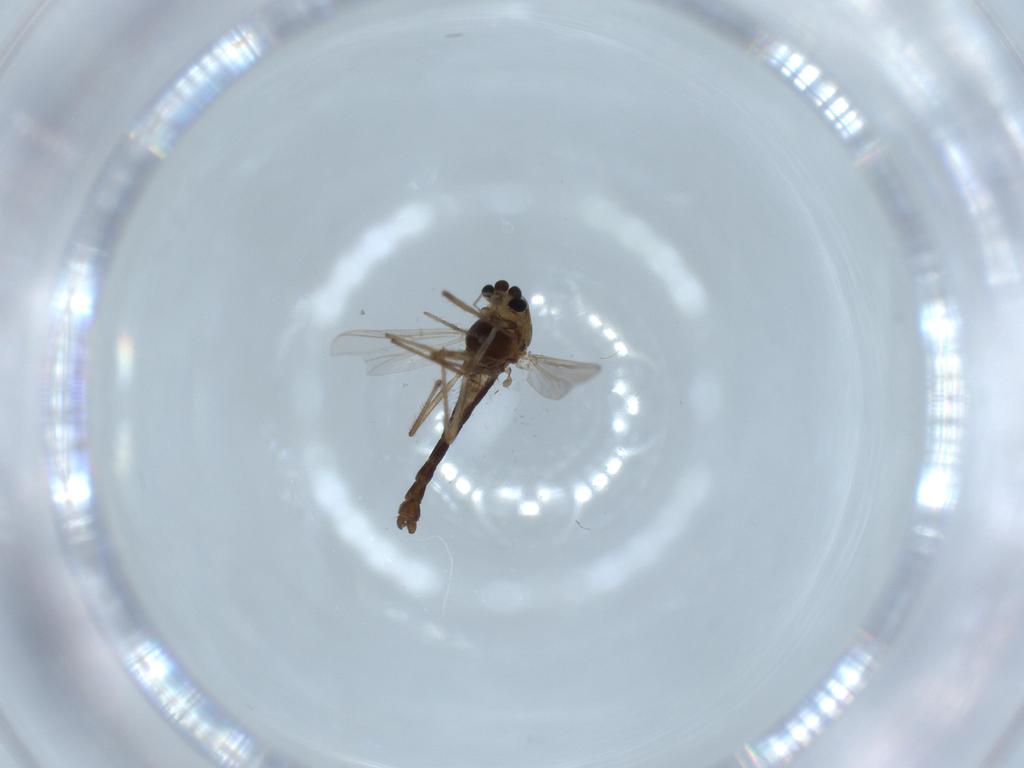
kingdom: Animalia
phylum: Arthropoda
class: Insecta
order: Diptera
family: Chironomidae
